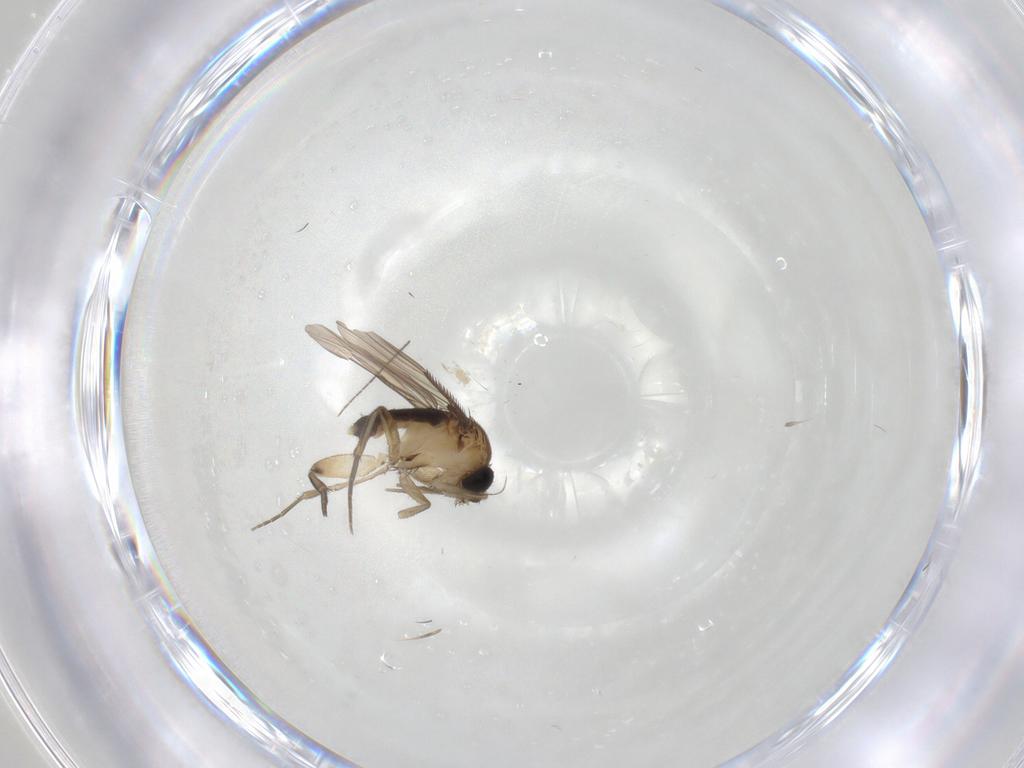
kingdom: Animalia
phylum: Arthropoda
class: Insecta
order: Diptera
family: Phoridae
